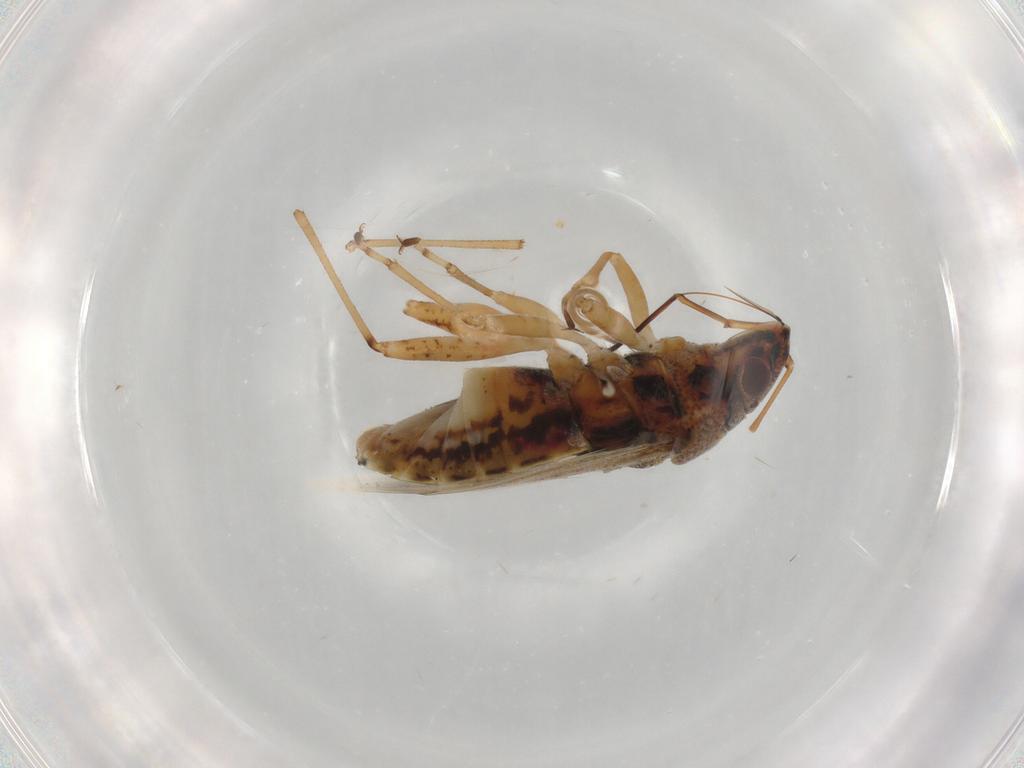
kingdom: Animalia
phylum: Arthropoda
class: Insecta
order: Hemiptera
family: Lygaeidae
